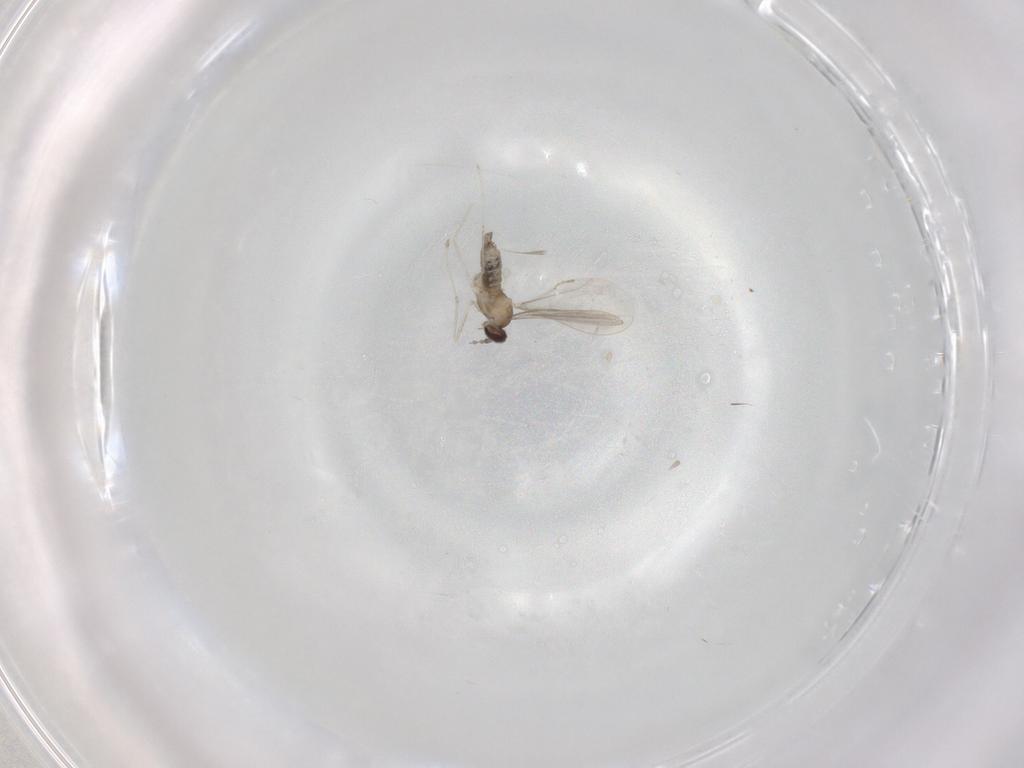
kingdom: Animalia
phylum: Arthropoda
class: Insecta
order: Diptera
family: Cecidomyiidae
